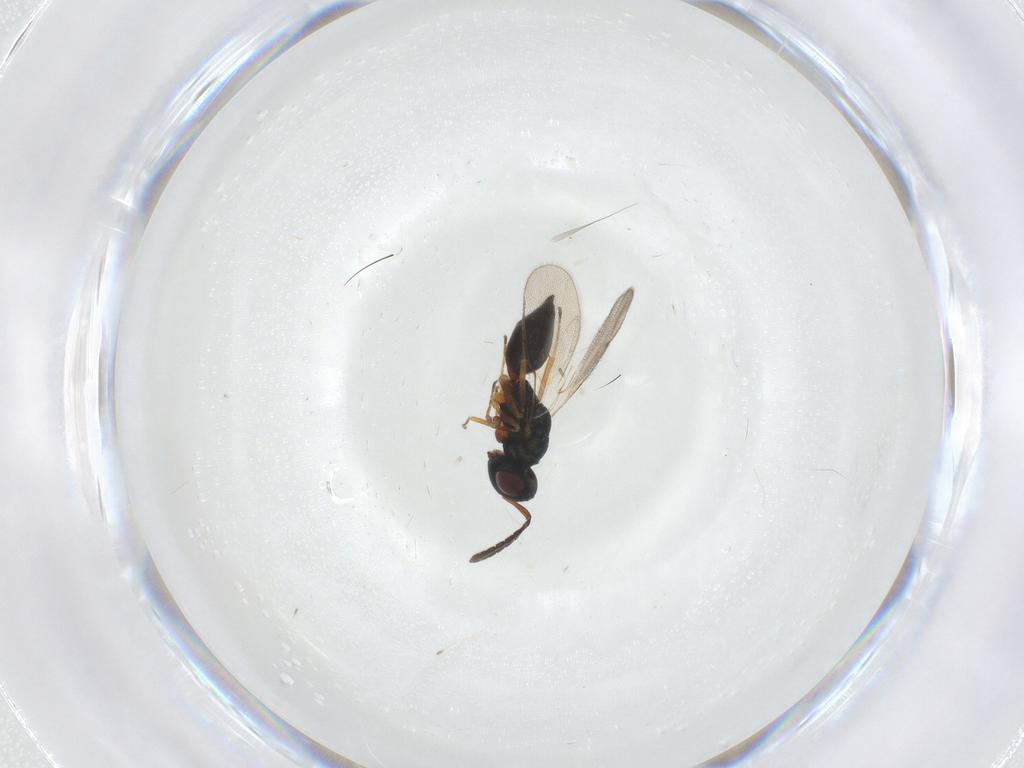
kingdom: Animalia
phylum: Arthropoda
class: Insecta
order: Hymenoptera
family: Pteromalidae
